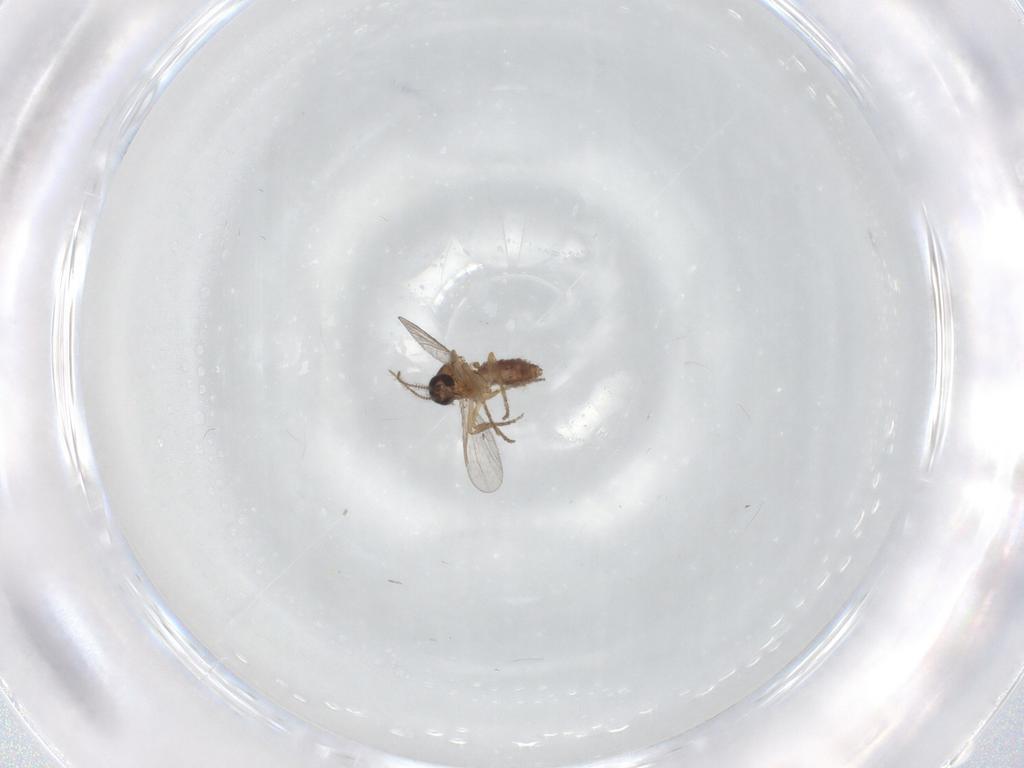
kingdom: Animalia
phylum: Arthropoda
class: Insecta
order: Diptera
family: Chironomidae
